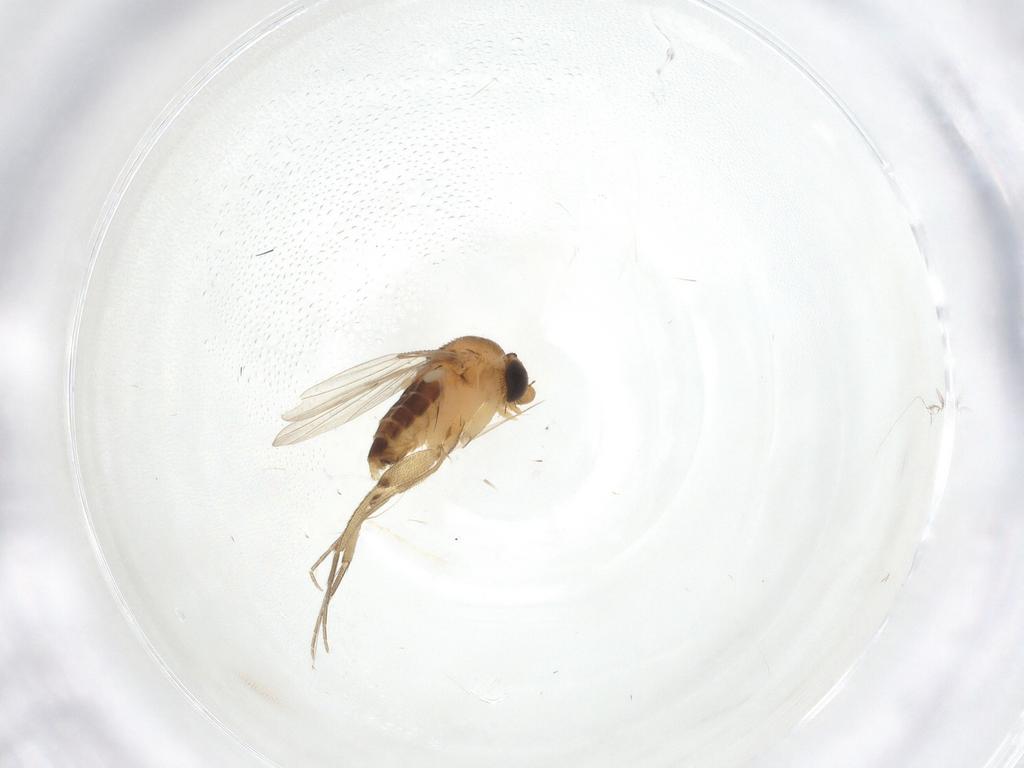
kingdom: Animalia
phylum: Arthropoda
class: Insecta
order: Diptera
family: Phoridae
